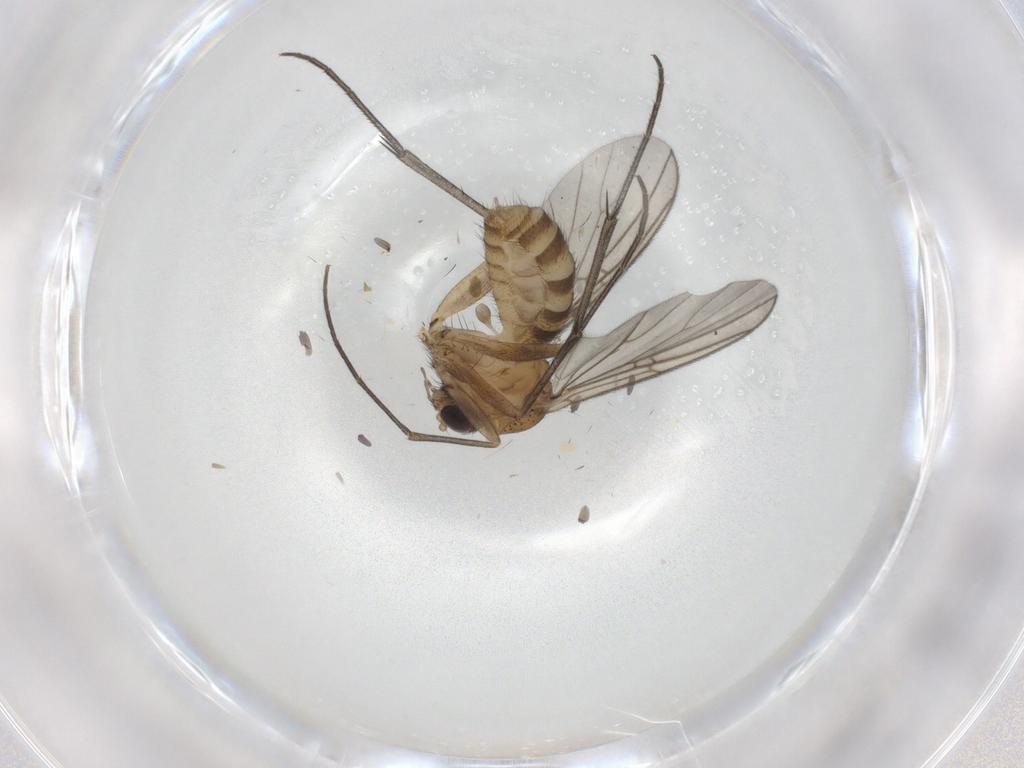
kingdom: Animalia
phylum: Arthropoda
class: Insecta
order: Diptera
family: Mycetophilidae
